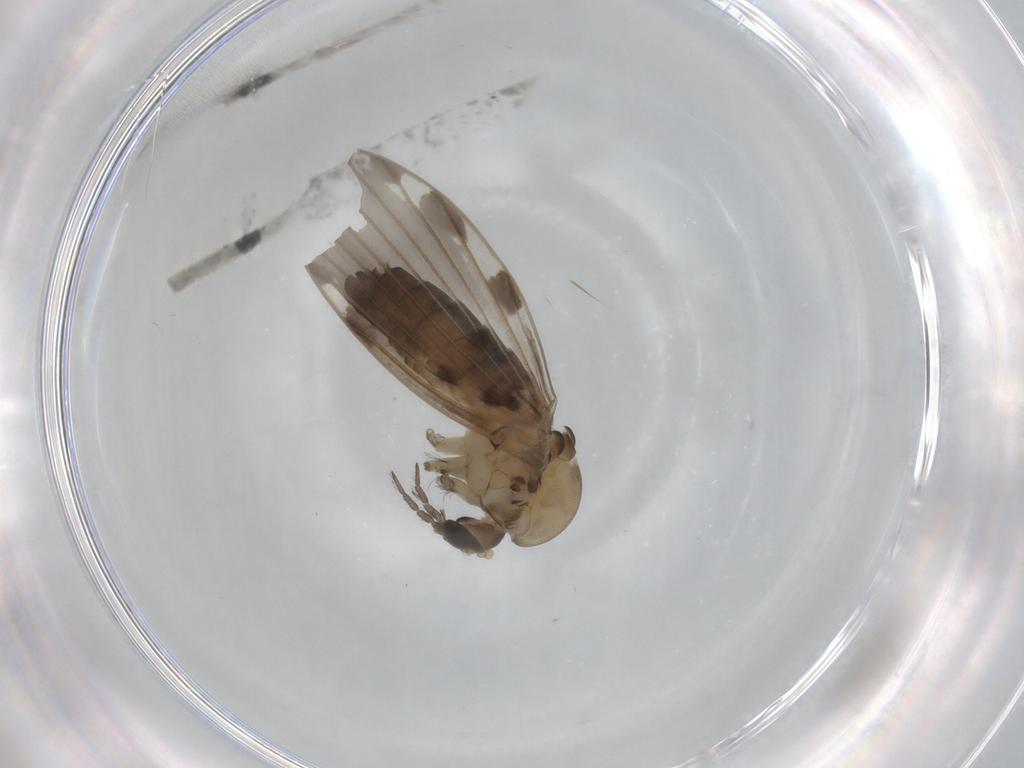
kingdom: Animalia
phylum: Arthropoda
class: Insecta
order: Diptera
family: Psychodidae
